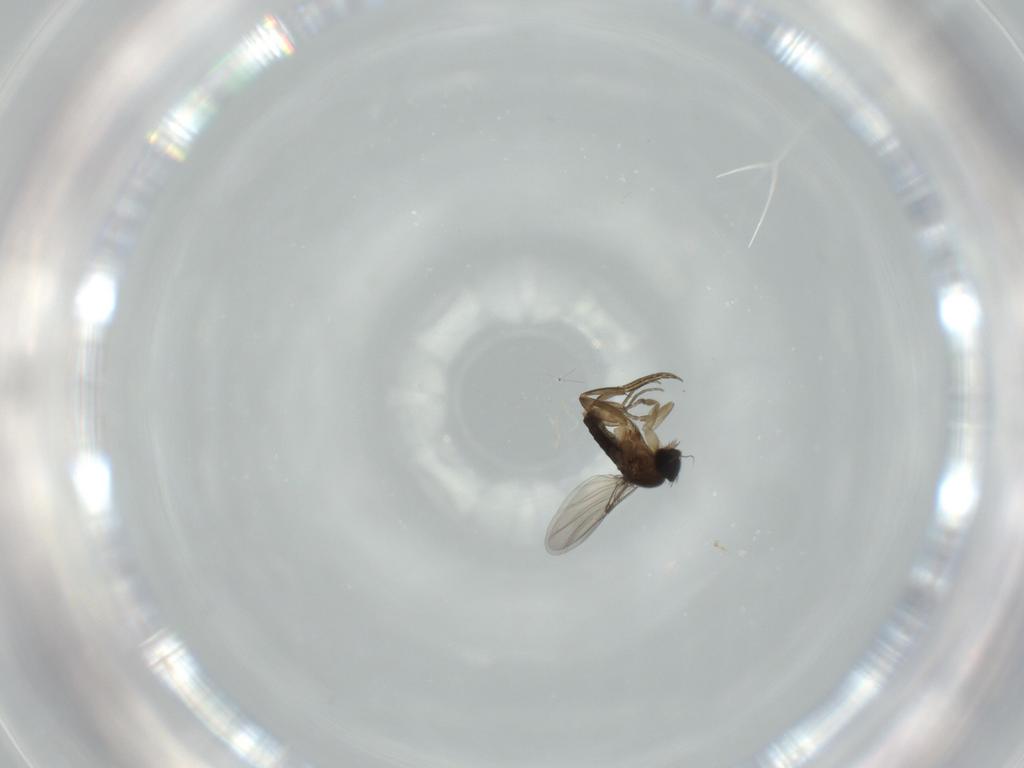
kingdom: Animalia
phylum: Arthropoda
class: Insecta
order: Diptera
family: Phoridae
